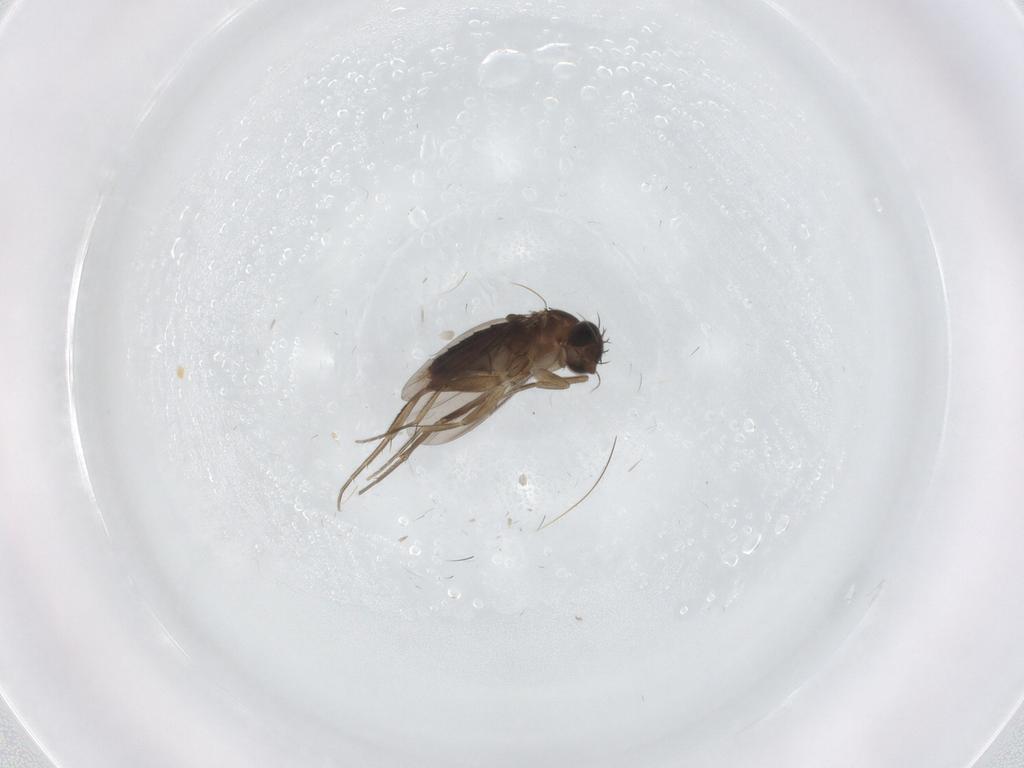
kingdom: Animalia
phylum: Arthropoda
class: Insecta
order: Diptera
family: Phoridae
